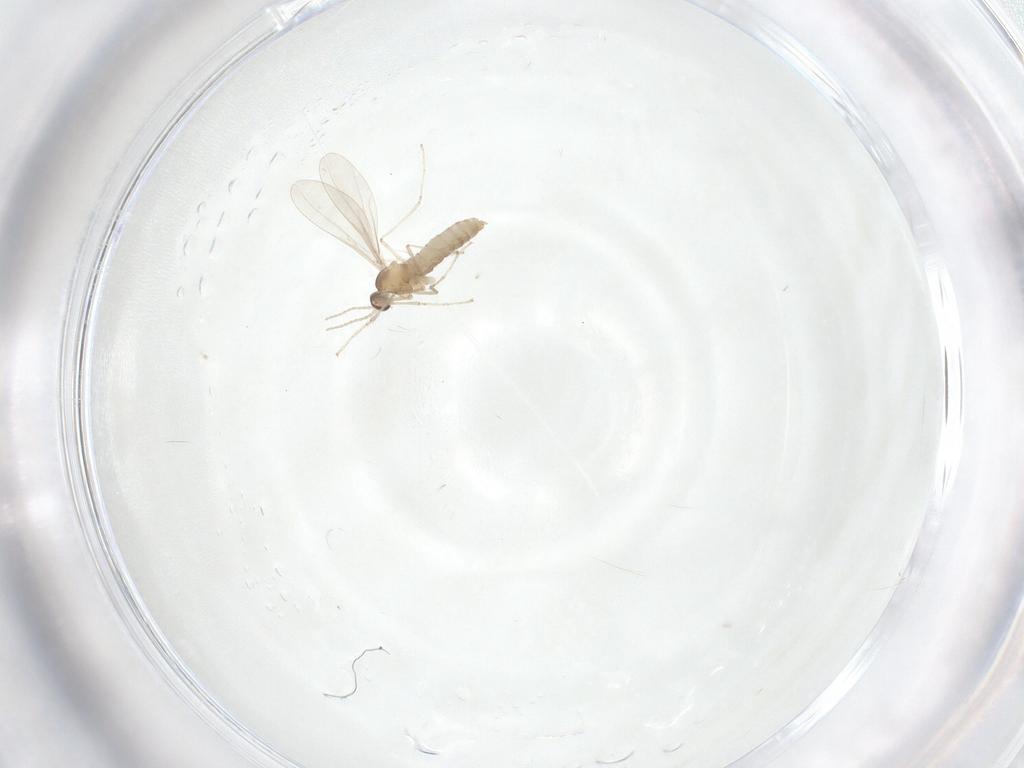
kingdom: Animalia
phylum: Arthropoda
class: Insecta
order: Diptera
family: Cecidomyiidae
